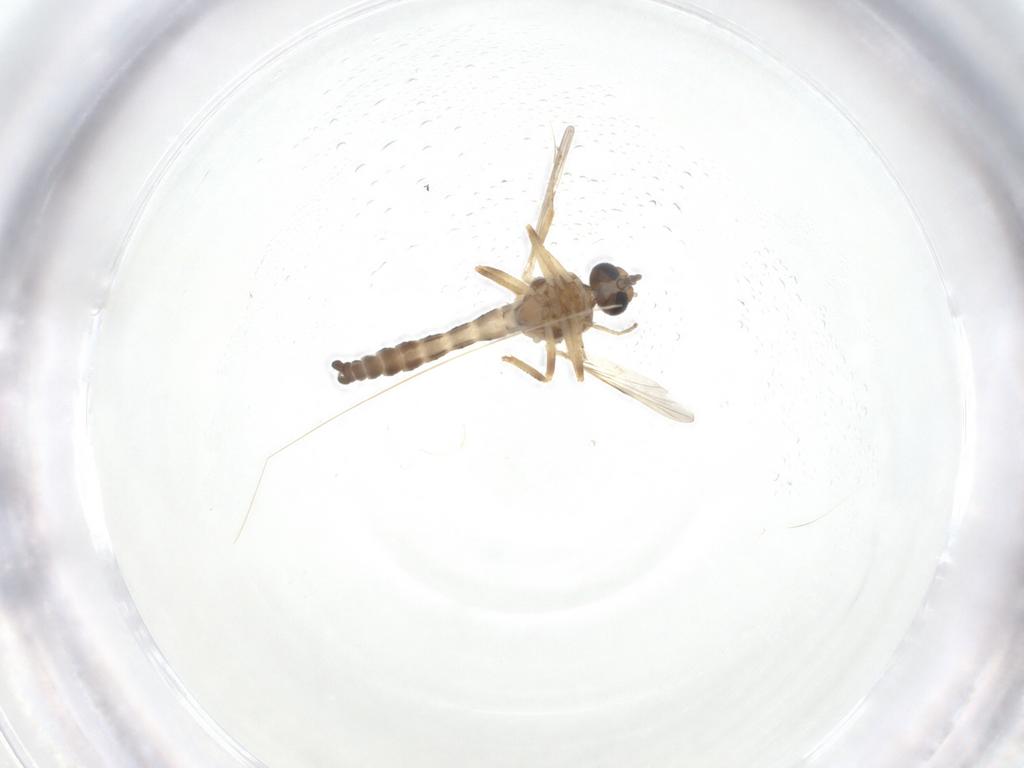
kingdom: Animalia
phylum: Arthropoda
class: Insecta
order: Diptera
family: Ceratopogonidae
